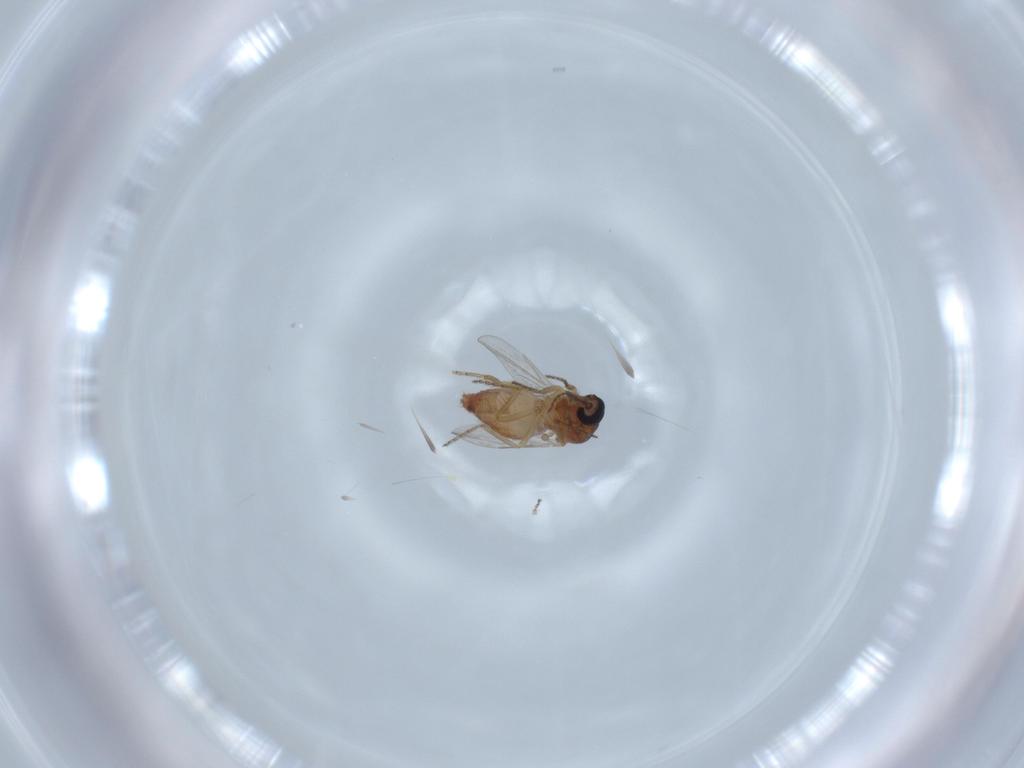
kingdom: Animalia
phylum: Arthropoda
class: Insecta
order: Diptera
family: Ceratopogonidae
